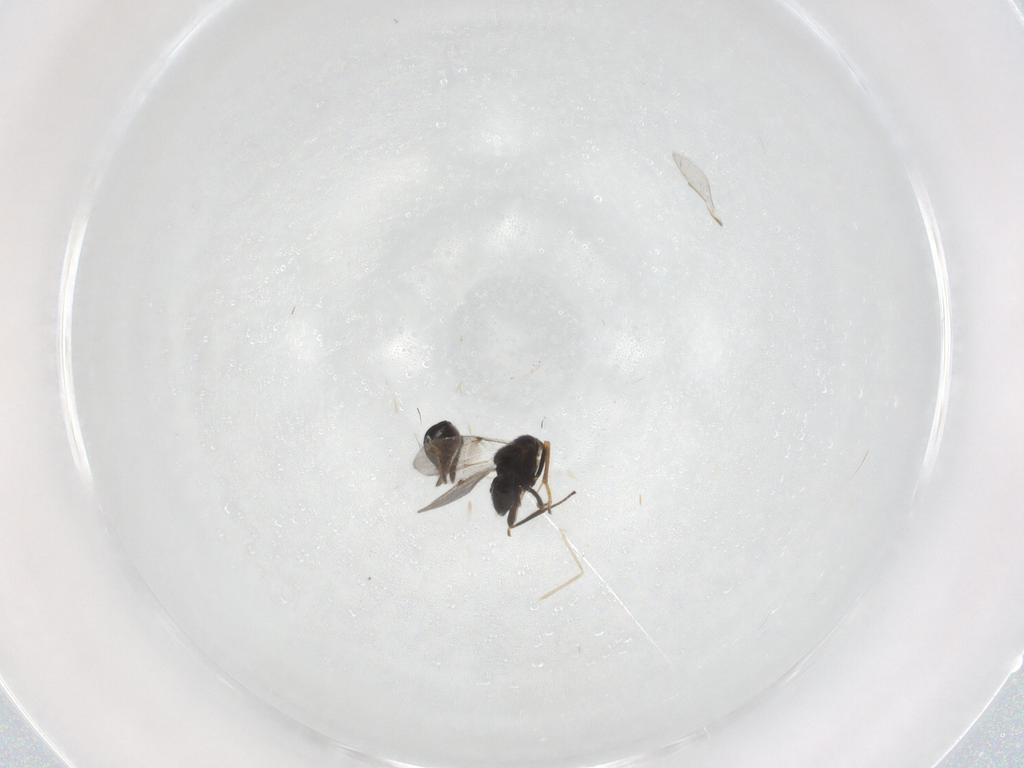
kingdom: Animalia
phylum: Arthropoda
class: Insecta
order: Hymenoptera
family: Encyrtidae
